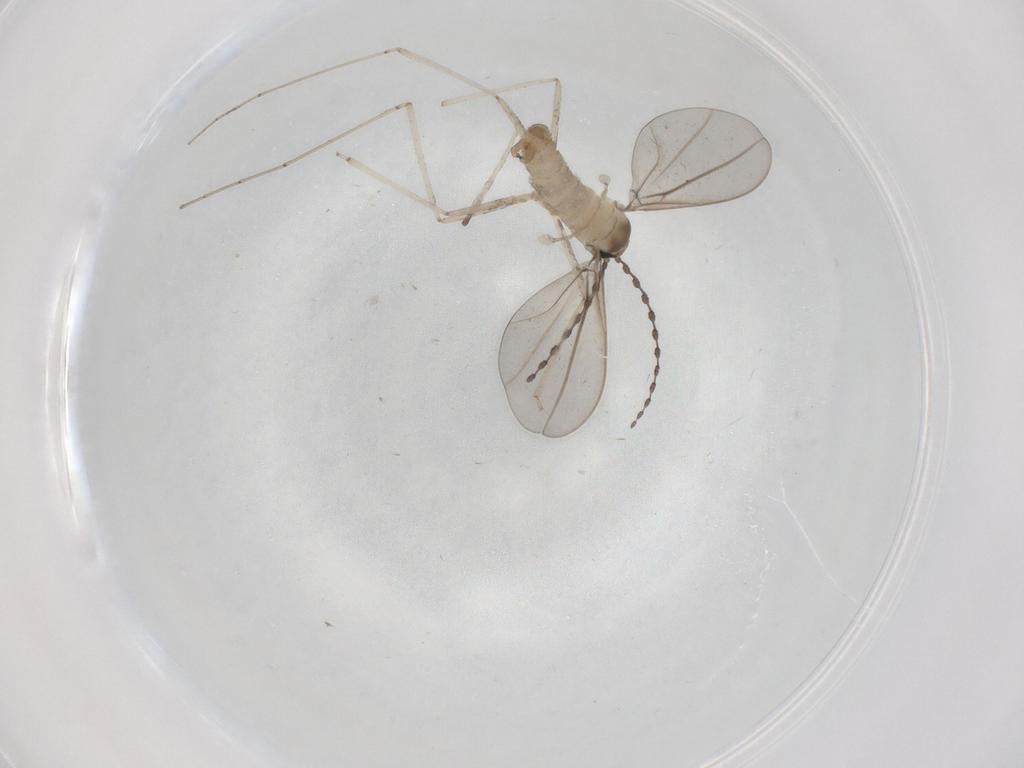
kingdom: Animalia
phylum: Arthropoda
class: Insecta
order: Diptera
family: Cecidomyiidae
